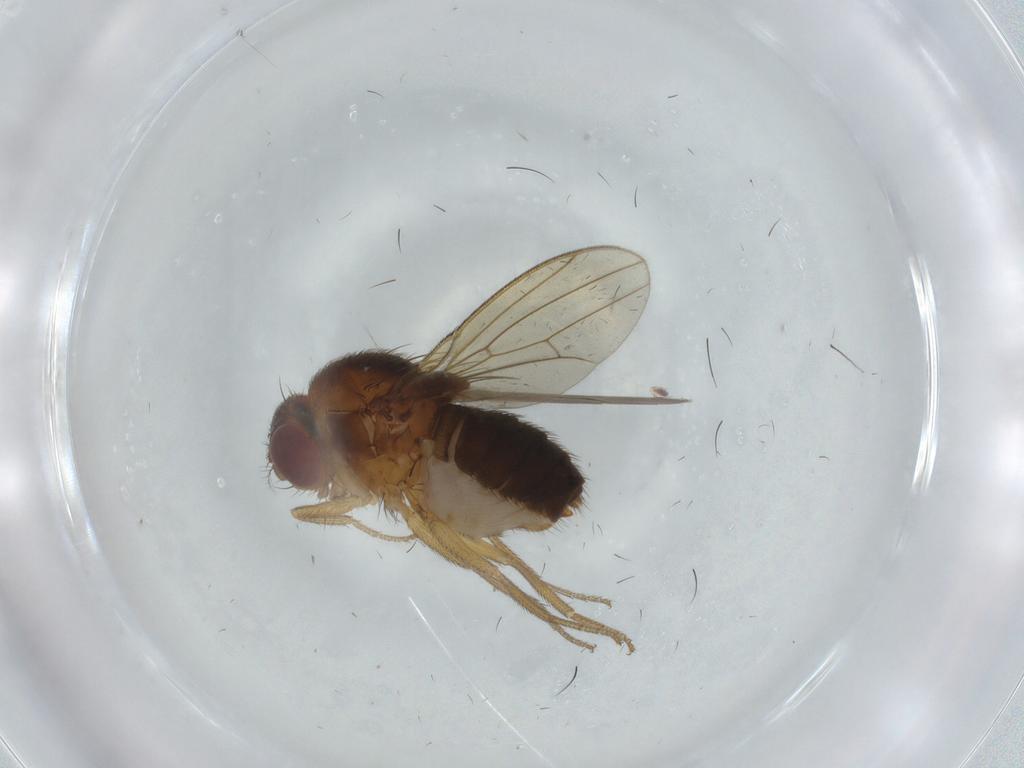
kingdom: Animalia
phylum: Arthropoda
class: Insecta
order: Diptera
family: Drosophilidae
